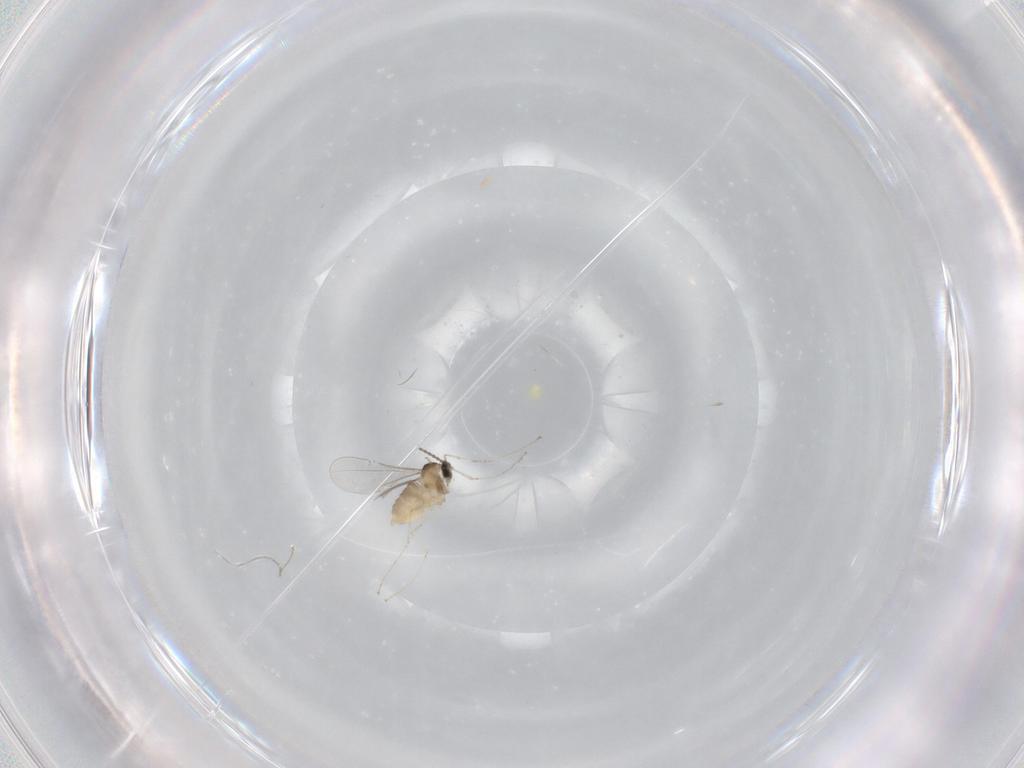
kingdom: Animalia
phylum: Arthropoda
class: Insecta
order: Diptera
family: Cecidomyiidae
